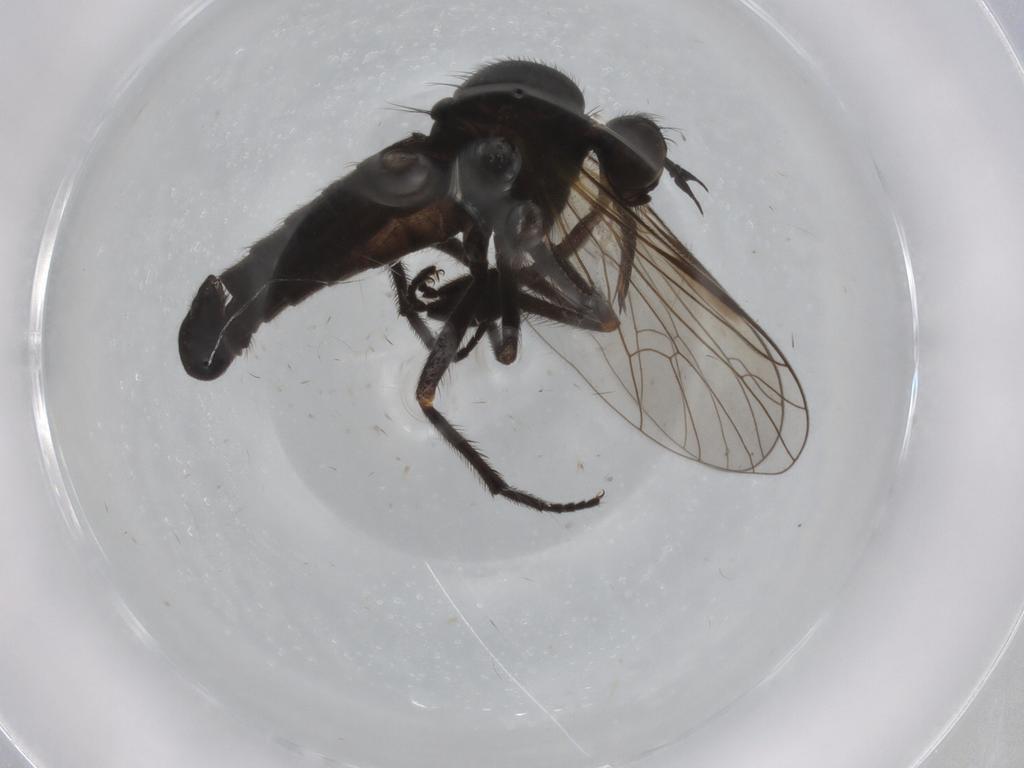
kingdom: Animalia
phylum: Arthropoda
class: Insecta
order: Diptera
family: Empididae
